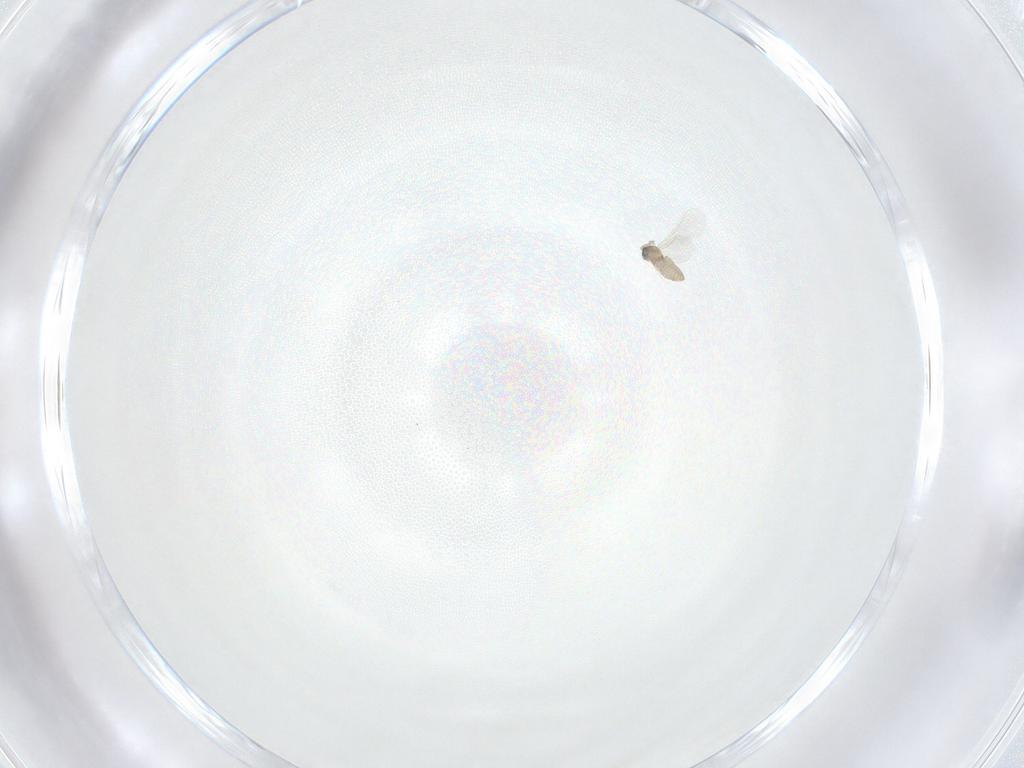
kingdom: Animalia
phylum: Arthropoda
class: Insecta
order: Diptera
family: Cecidomyiidae
